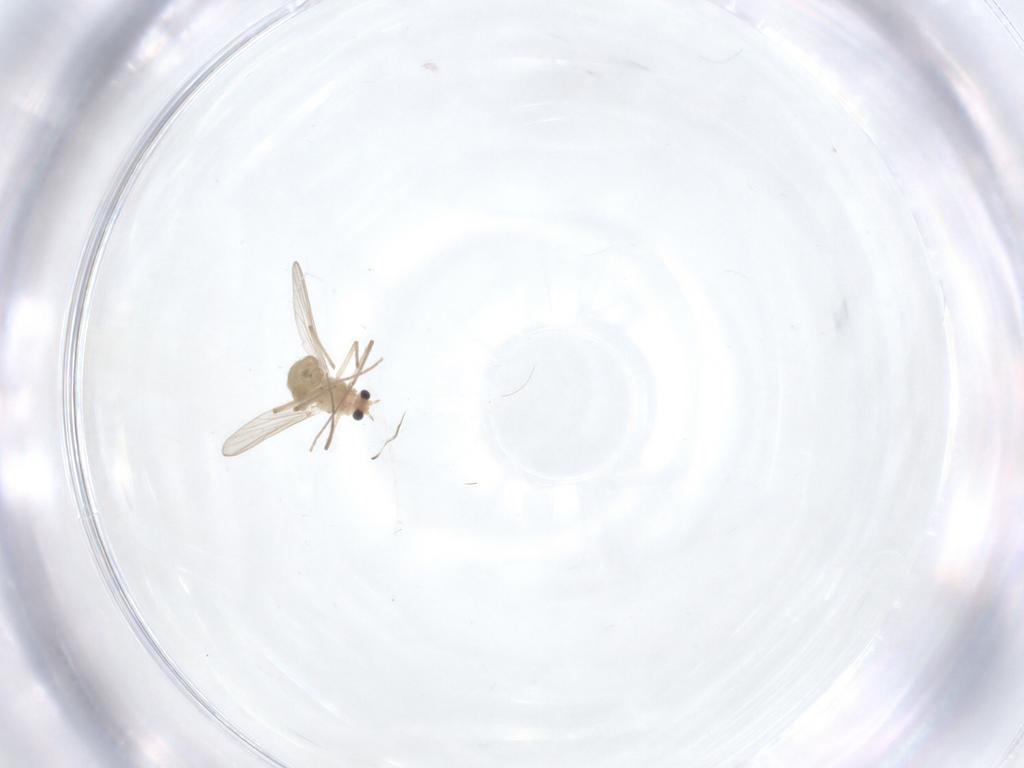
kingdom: Animalia
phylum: Arthropoda
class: Insecta
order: Diptera
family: Chironomidae
